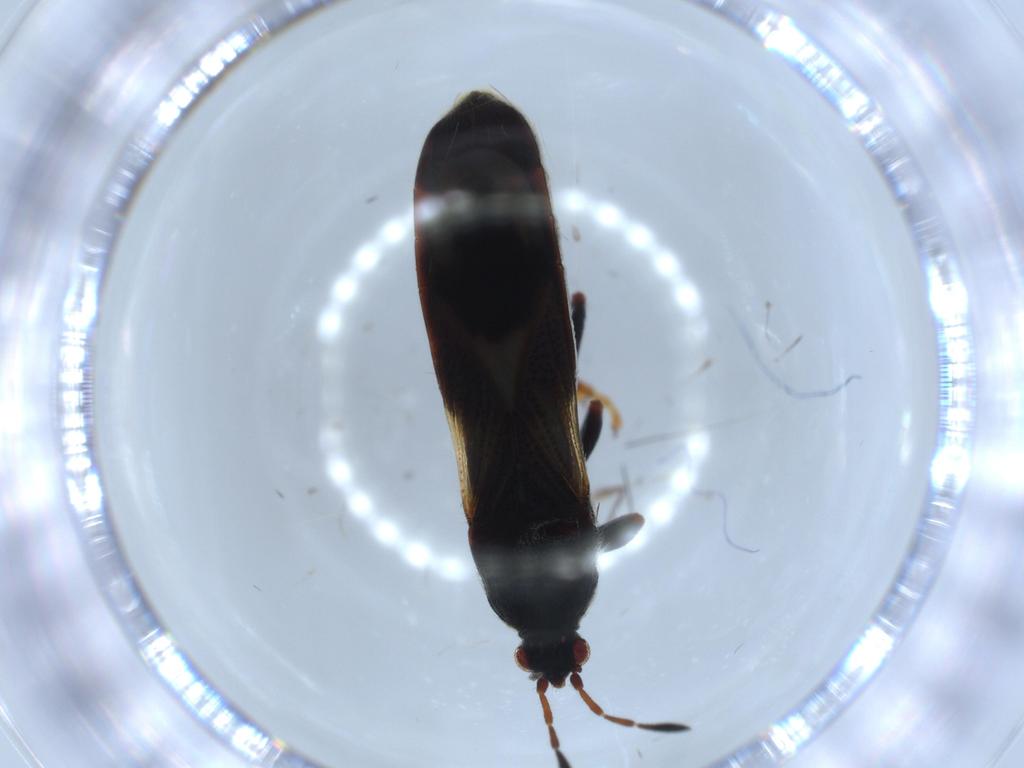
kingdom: Animalia
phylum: Arthropoda
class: Insecta
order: Hemiptera
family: Blissidae
